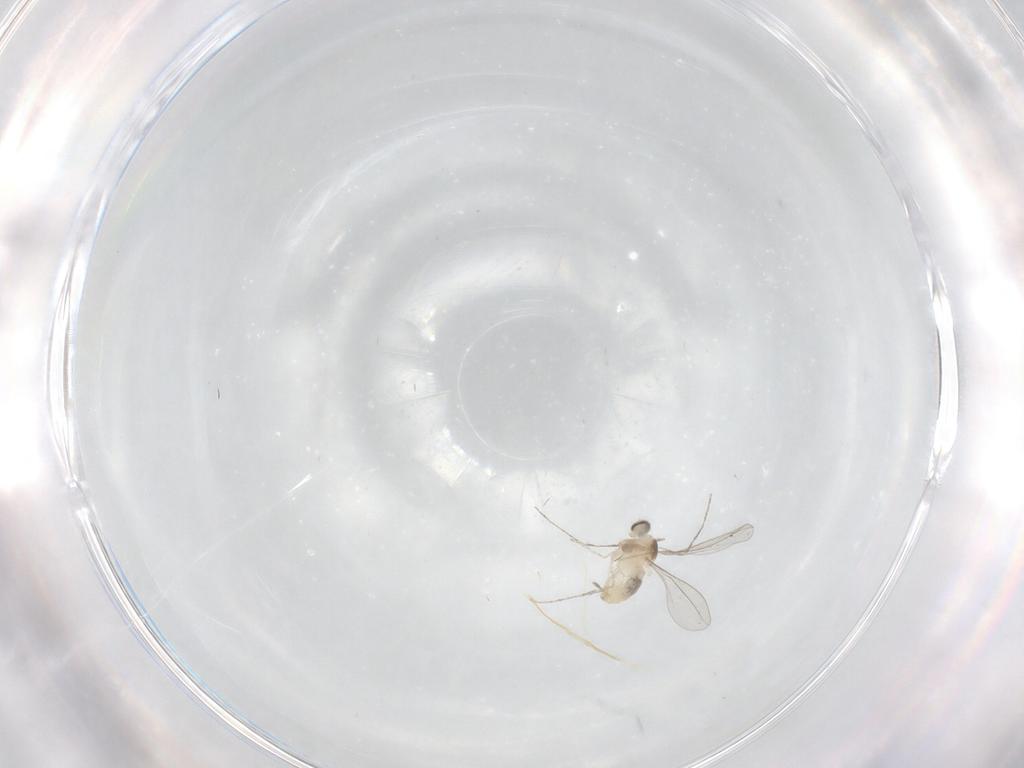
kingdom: Animalia
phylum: Arthropoda
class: Insecta
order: Diptera
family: Cecidomyiidae
